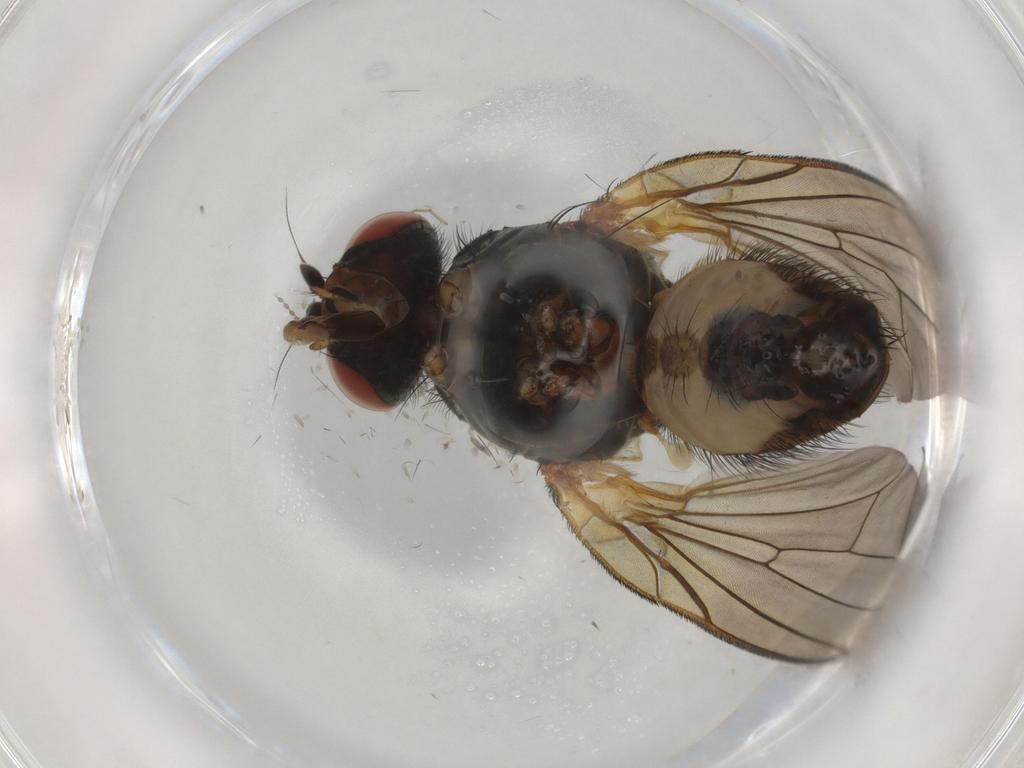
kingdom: Animalia
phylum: Arthropoda
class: Insecta
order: Diptera
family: Anthomyiidae
